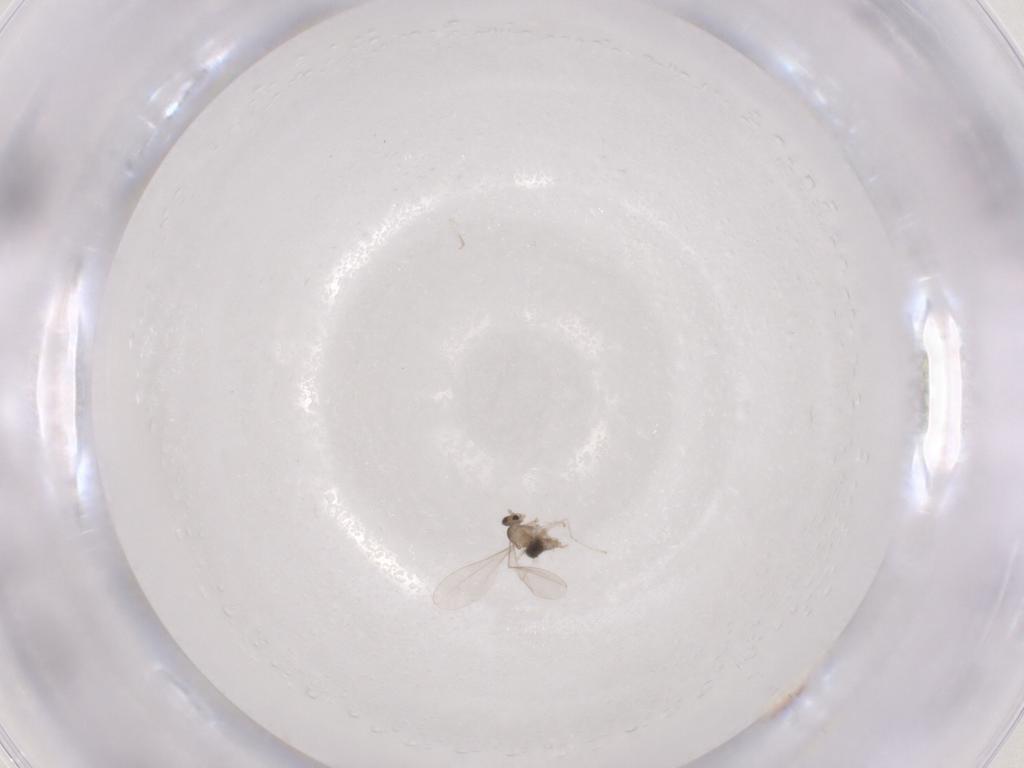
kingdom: Animalia
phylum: Arthropoda
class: Insecta
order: Diptera
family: Cecidomyiidae
